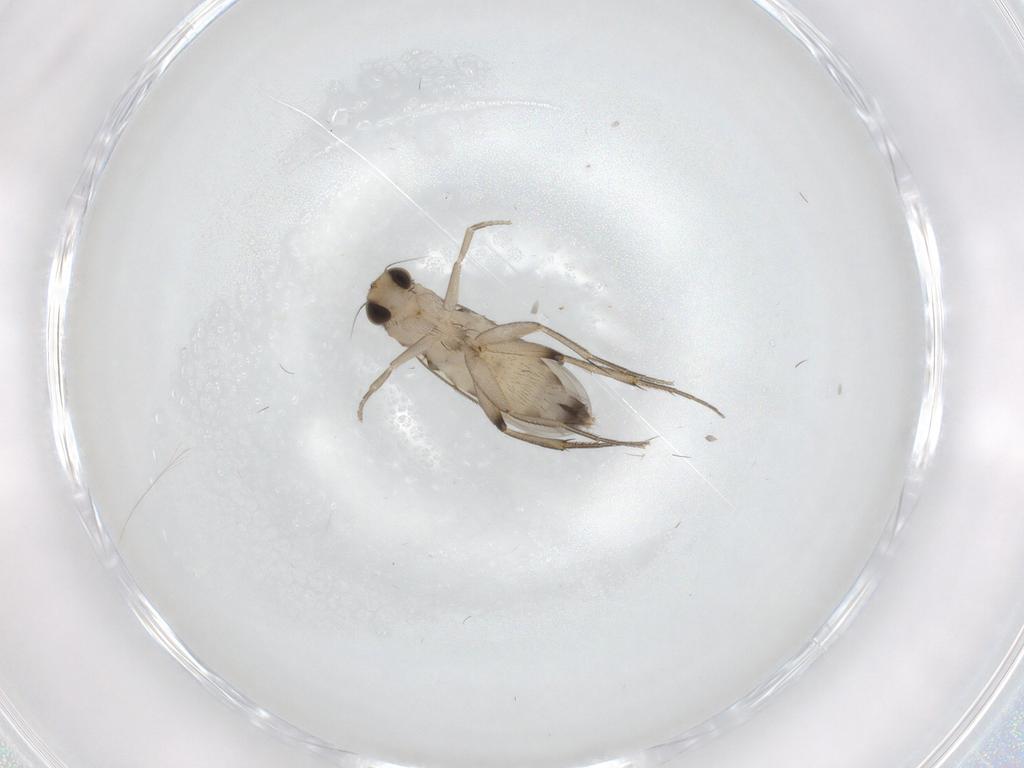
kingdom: Animalia
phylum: Arthropoda
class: Insecta
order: Diptera
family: Phoridae
